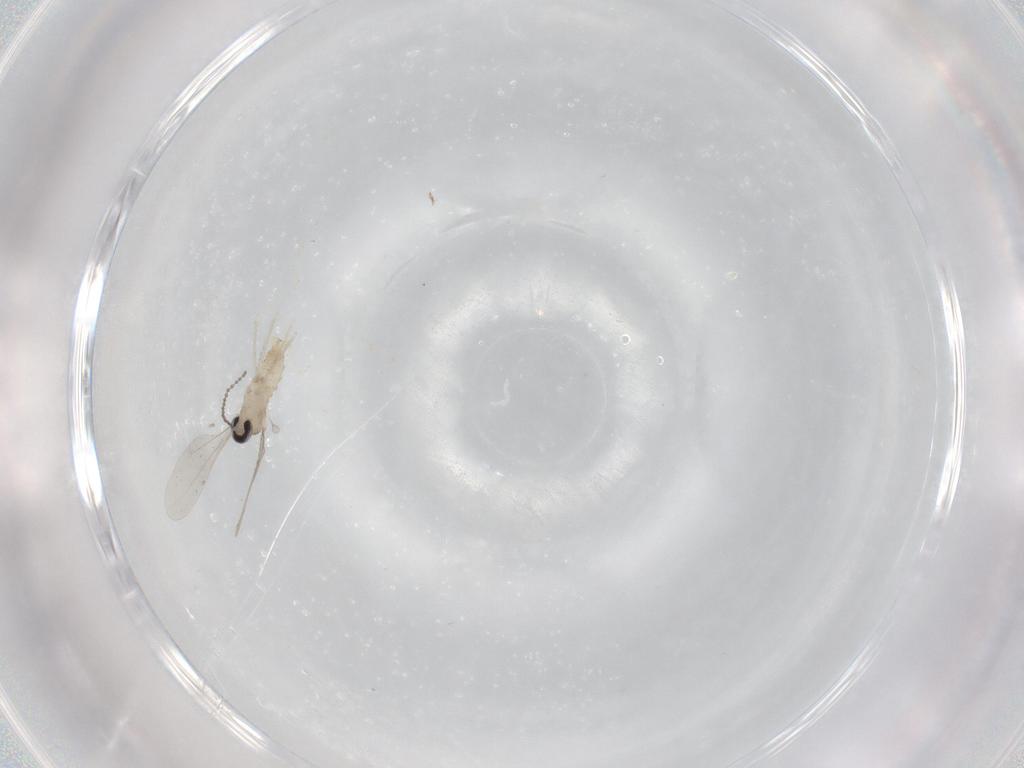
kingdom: Animalia
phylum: Arthropoda
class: Insecta
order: Diptera
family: Cecidomyiidae
